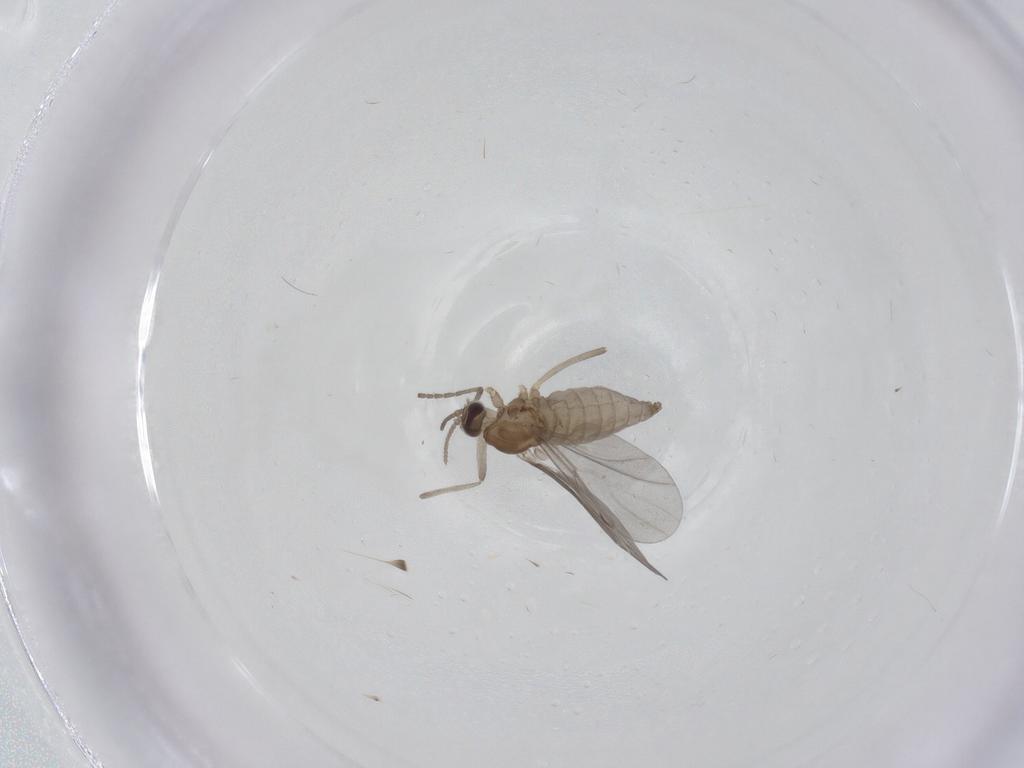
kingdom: Animalia
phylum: Arthropoda
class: Insecta
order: Diptera
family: Cecidomyiidae
